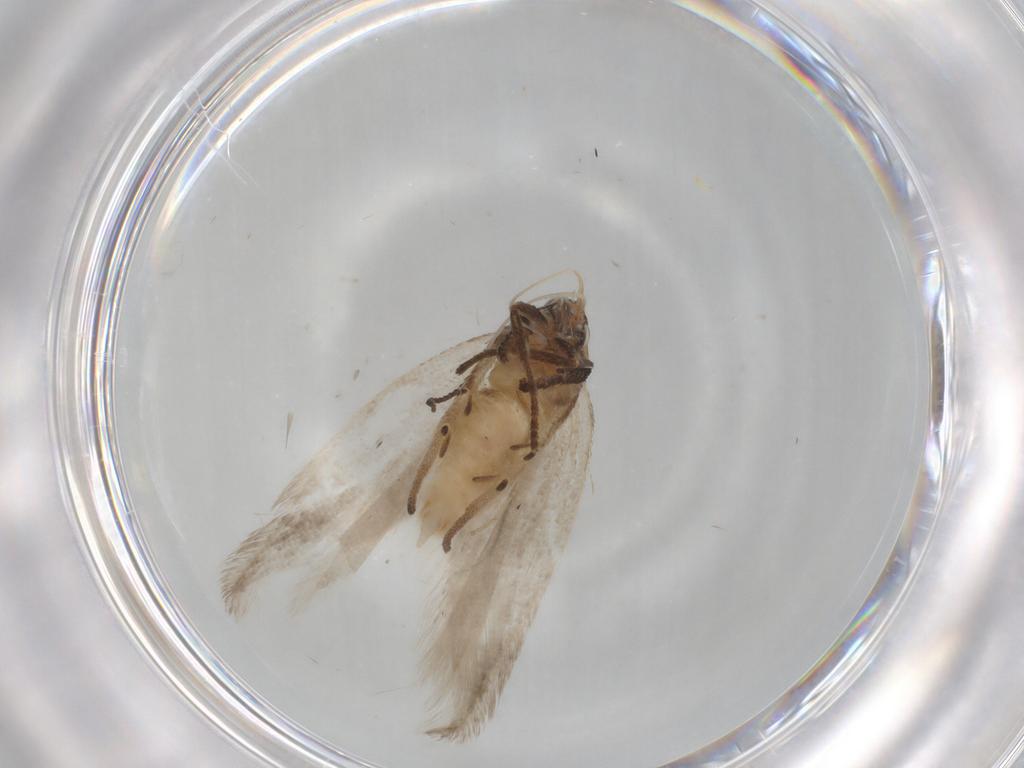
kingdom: Animalia
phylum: Arthropoda
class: Insecta
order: Lepidoptera
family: Gelechiidae
